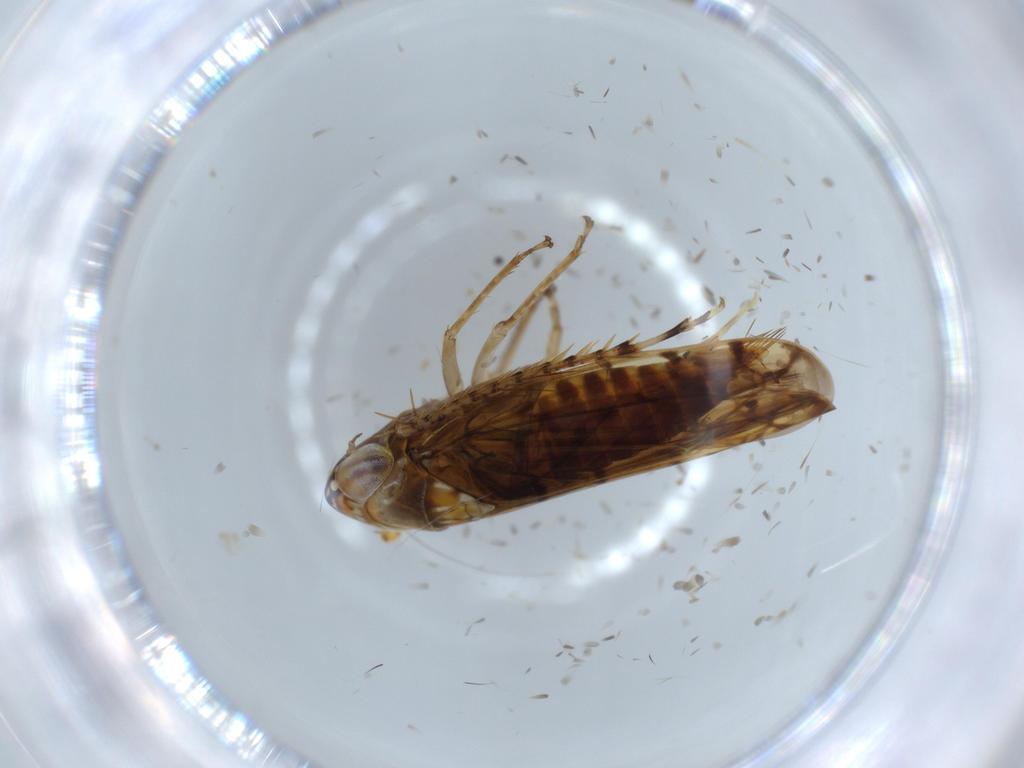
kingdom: Animalia
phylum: Arthropoda
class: Insecta
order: Hemiptera
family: Cicadellidae
